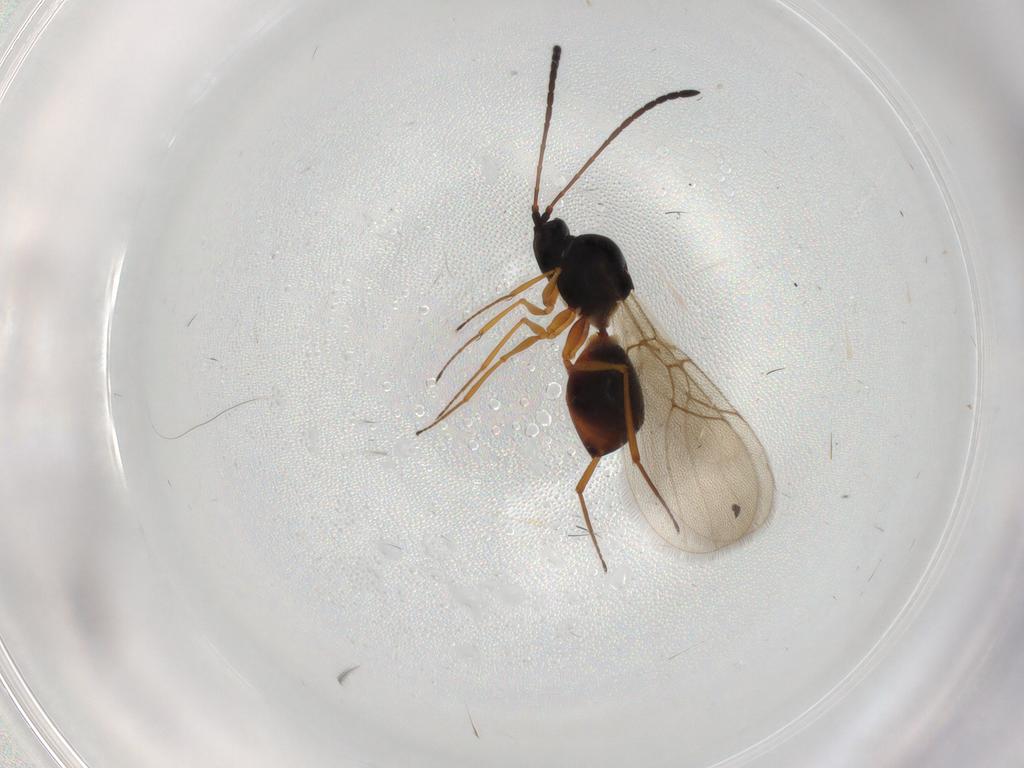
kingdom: Animalia
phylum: Arthropoda
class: Insecta
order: Hymenoptera
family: Figitidae
